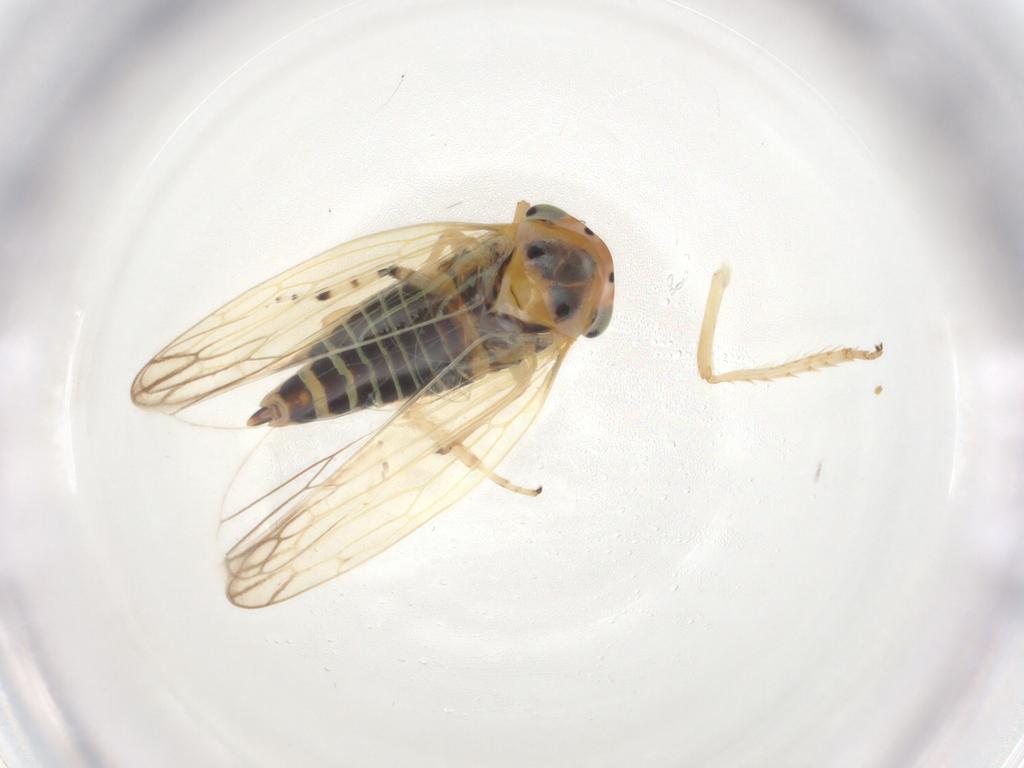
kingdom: Animalia
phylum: Arthropoda
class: Insecta
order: Hemiptera
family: Cicadellidae
